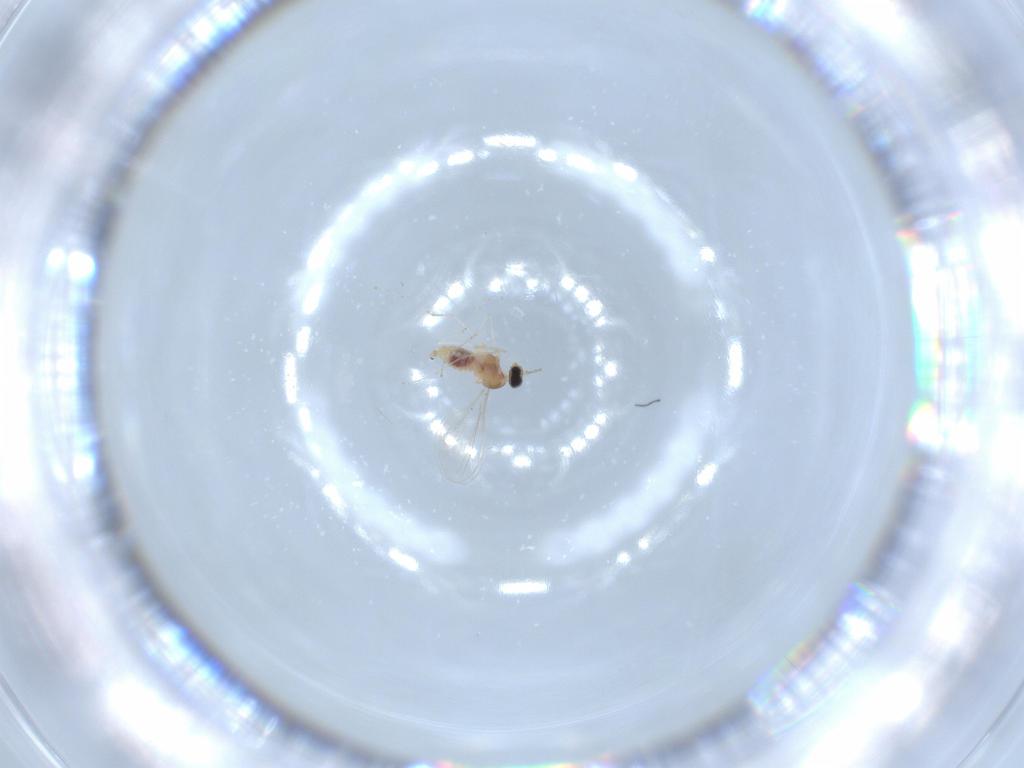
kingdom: Animalia
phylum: Arthropoda
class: Insecta
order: Diptera
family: Cecidomyiidae
